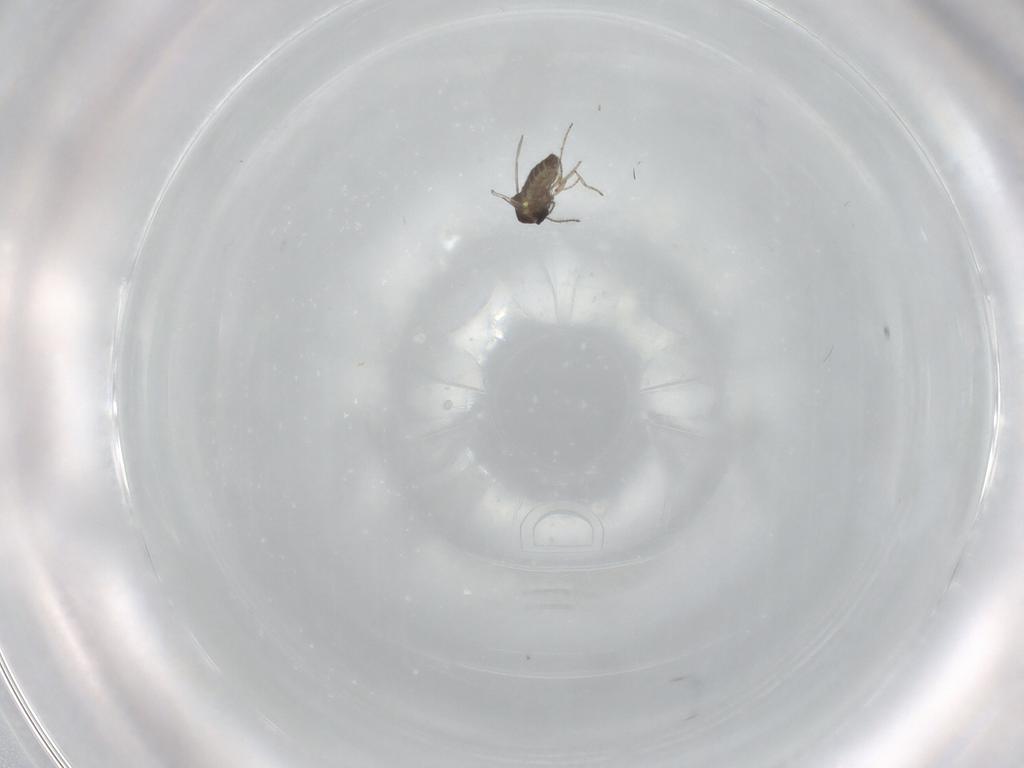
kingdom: Animalia
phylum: Arthropoda
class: Insecta
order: Diptera
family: Ceratopogonidae
